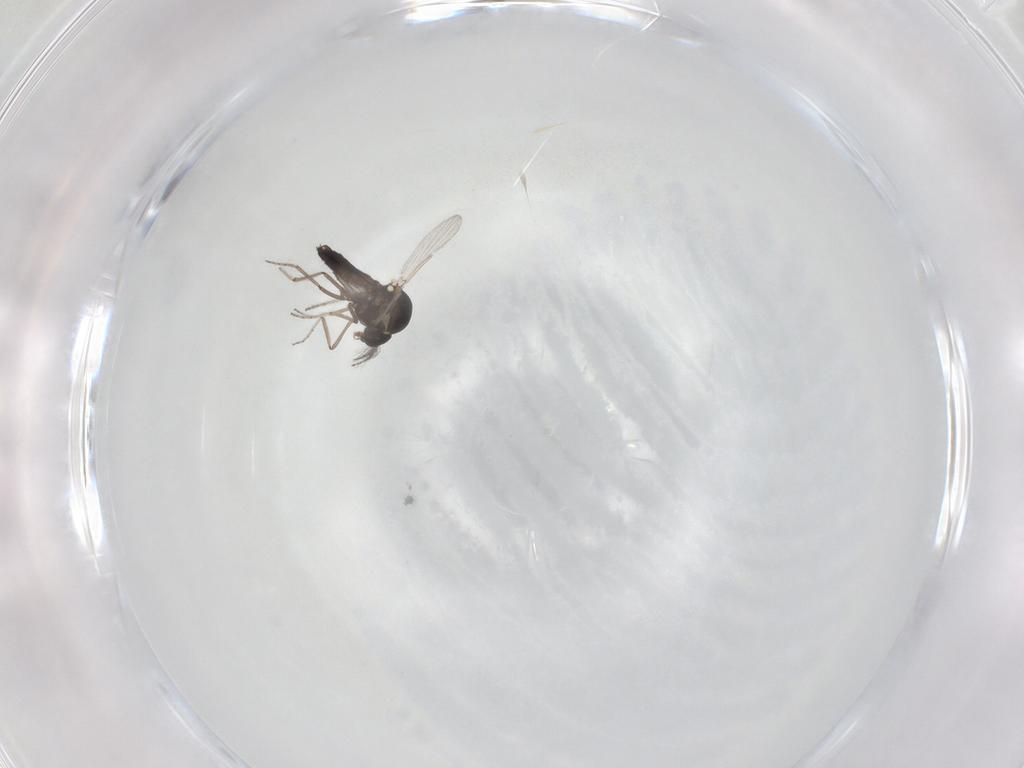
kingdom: Animalia
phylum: Arthropoda
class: Insecta
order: Diptera
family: Ceratopogonidae
